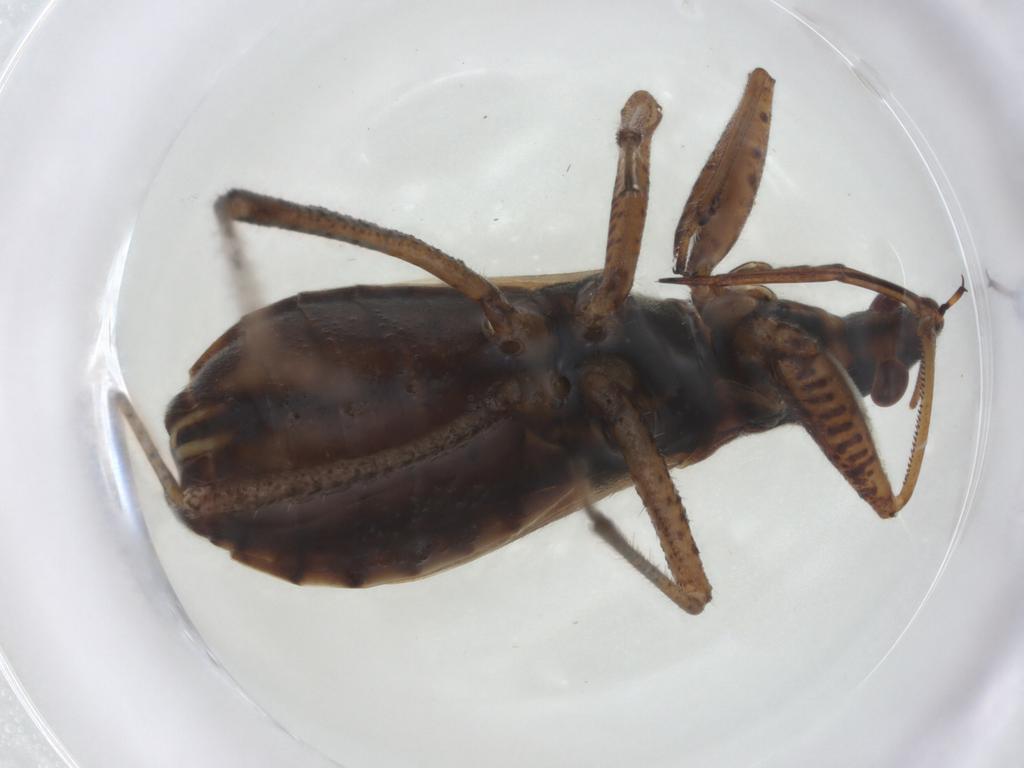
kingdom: Animalia
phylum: Arthropoda
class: Insecta
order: Hemiptera
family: Nabidae
